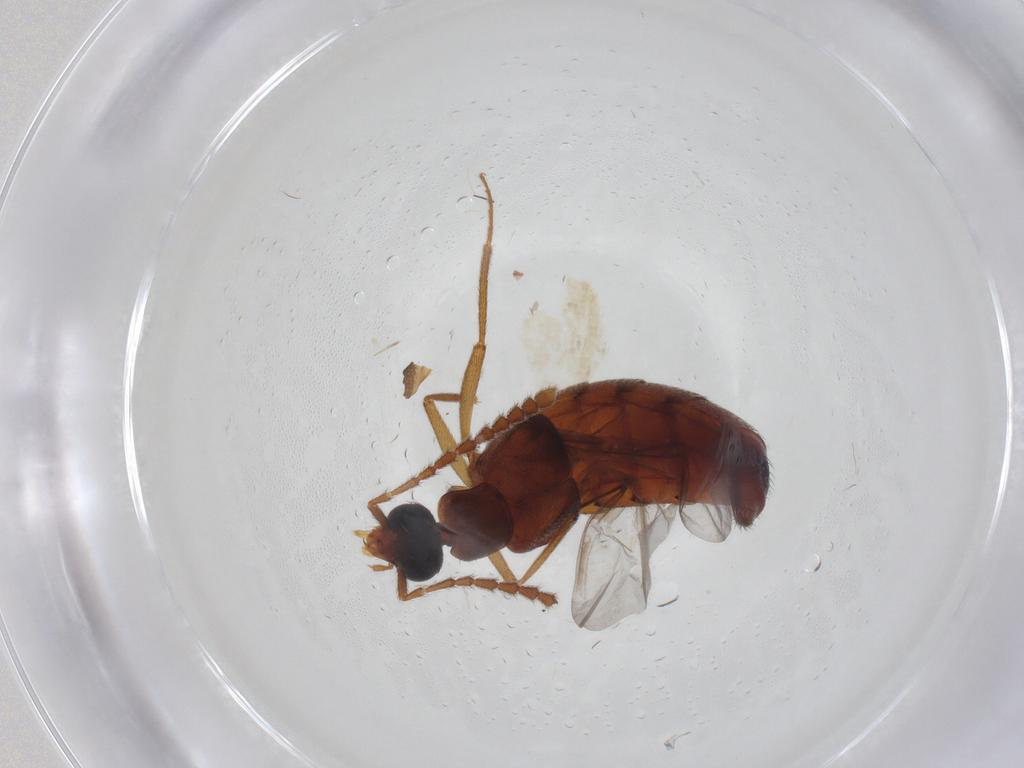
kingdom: Animalia
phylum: Arthropoda
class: Insecta
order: Coleoptera
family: Staphylinidae
